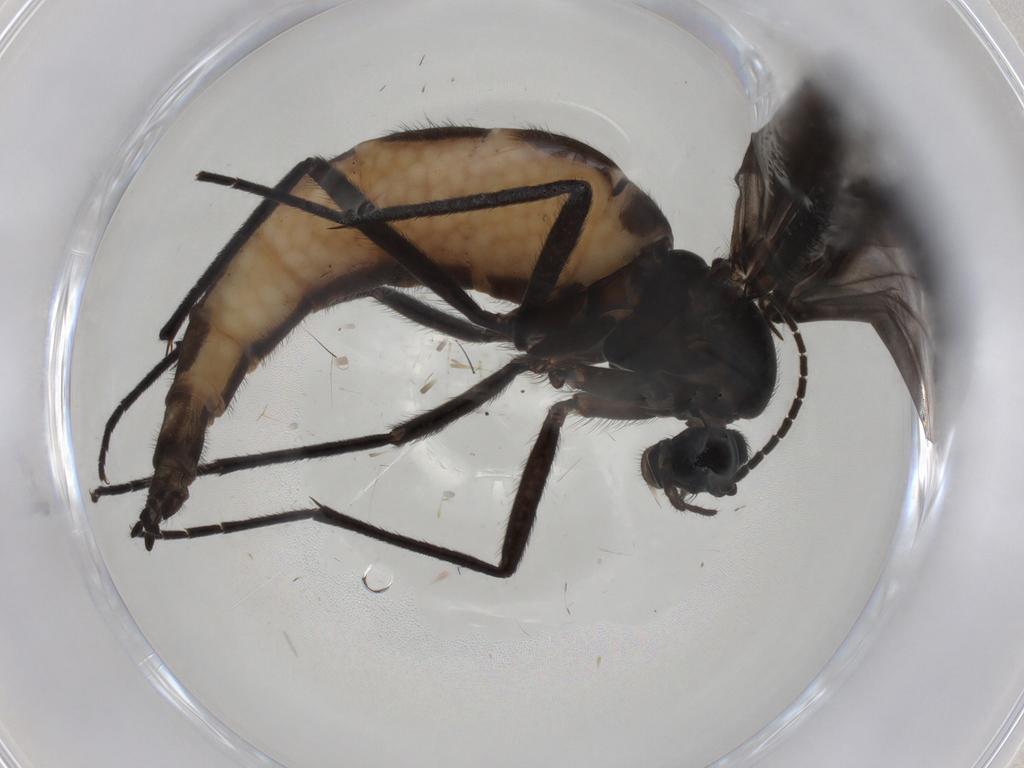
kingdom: Animalia
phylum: Arthropoda
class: Insecta
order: Diptera
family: Sciaridae
